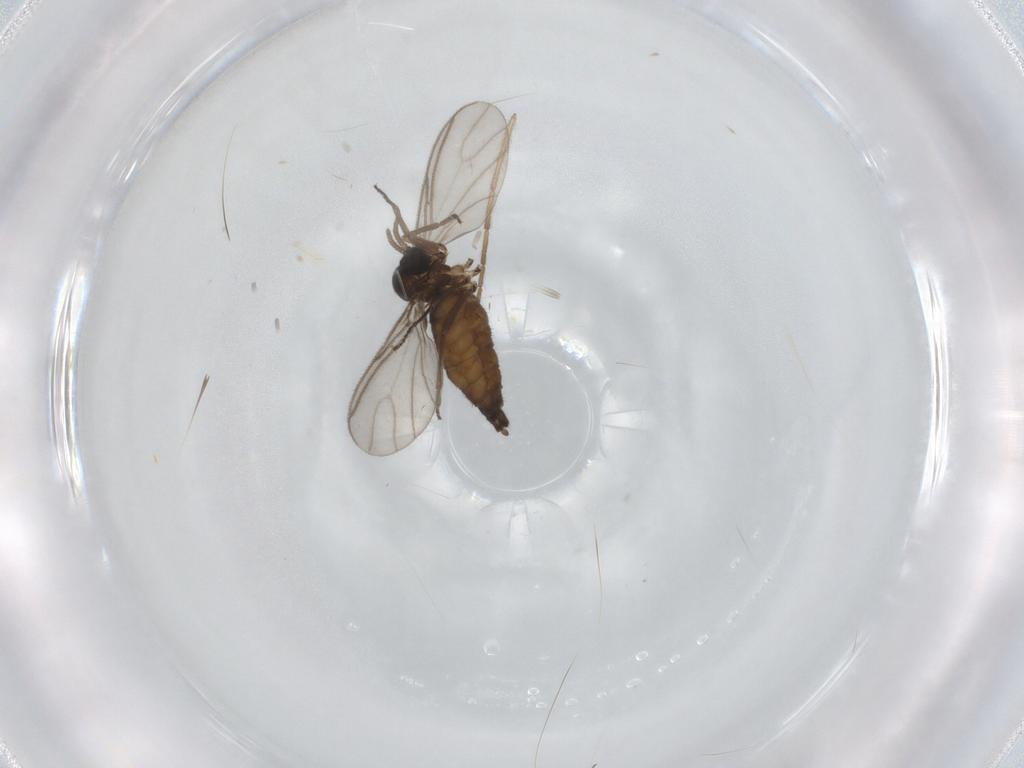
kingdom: Animalia
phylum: Arthropoda
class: Insecta
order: Diptera
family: Sciaridae
